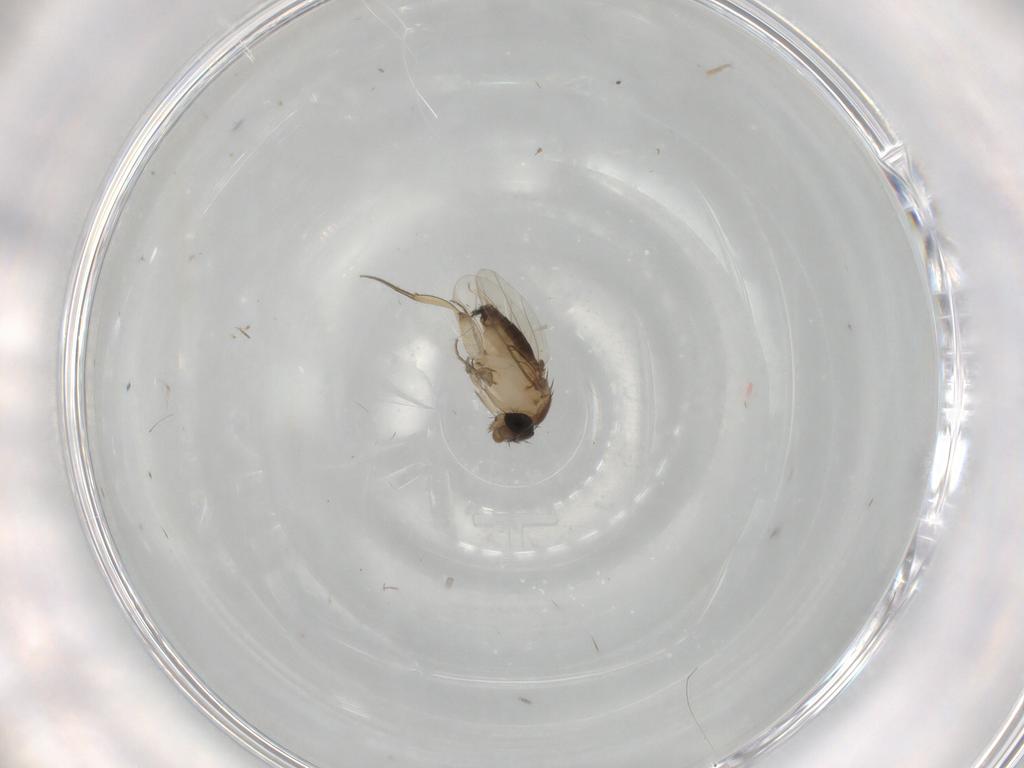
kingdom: Animalia
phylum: Arthropoda
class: Insecta
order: Diptera
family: Phoridae
